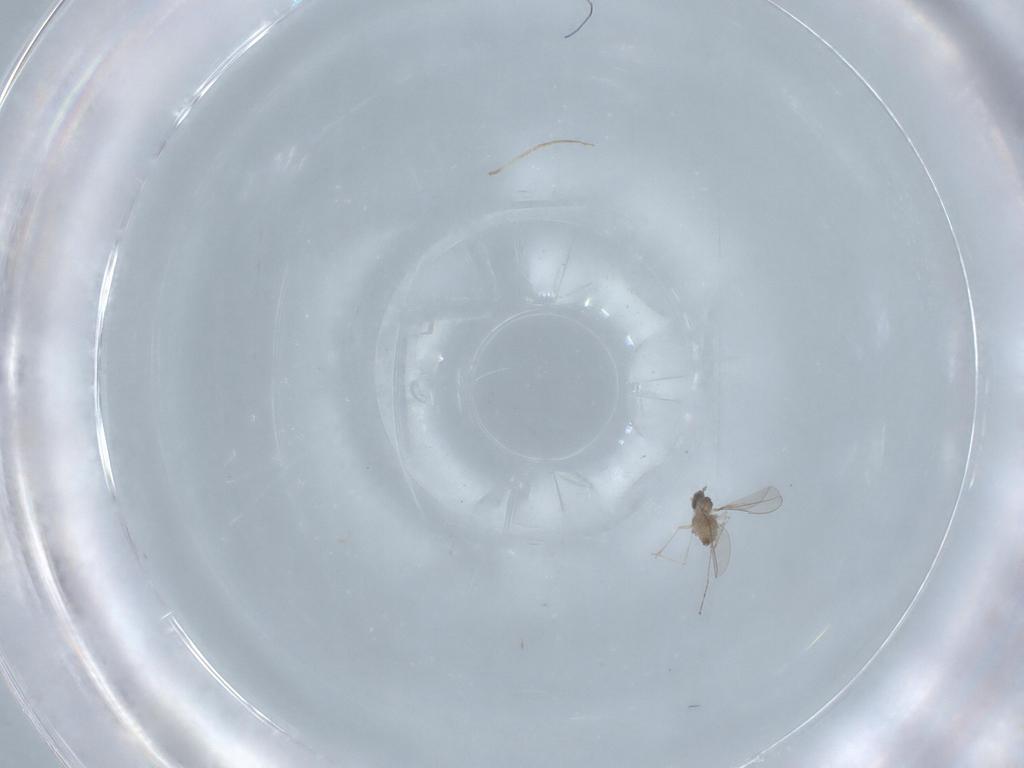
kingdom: Animalia
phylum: Arthropoda
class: Insecta
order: Diptera
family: Cecidomyiidae
